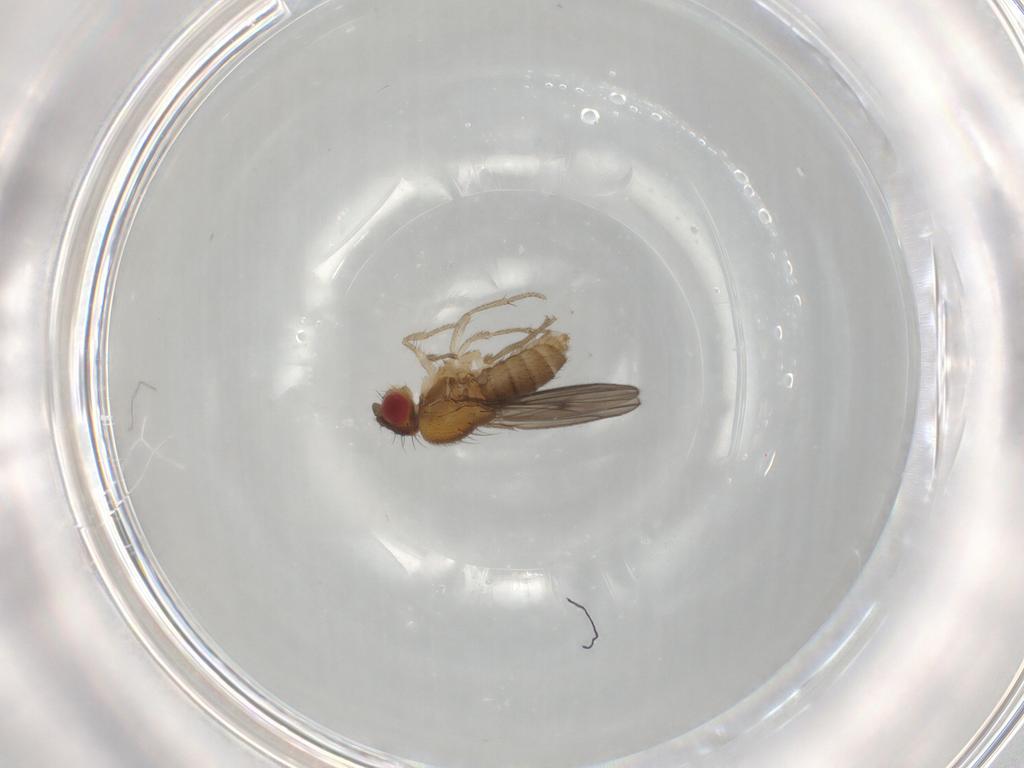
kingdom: Animalia
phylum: Arthropoda
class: Insecta
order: Diptera
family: Drosophilidae
